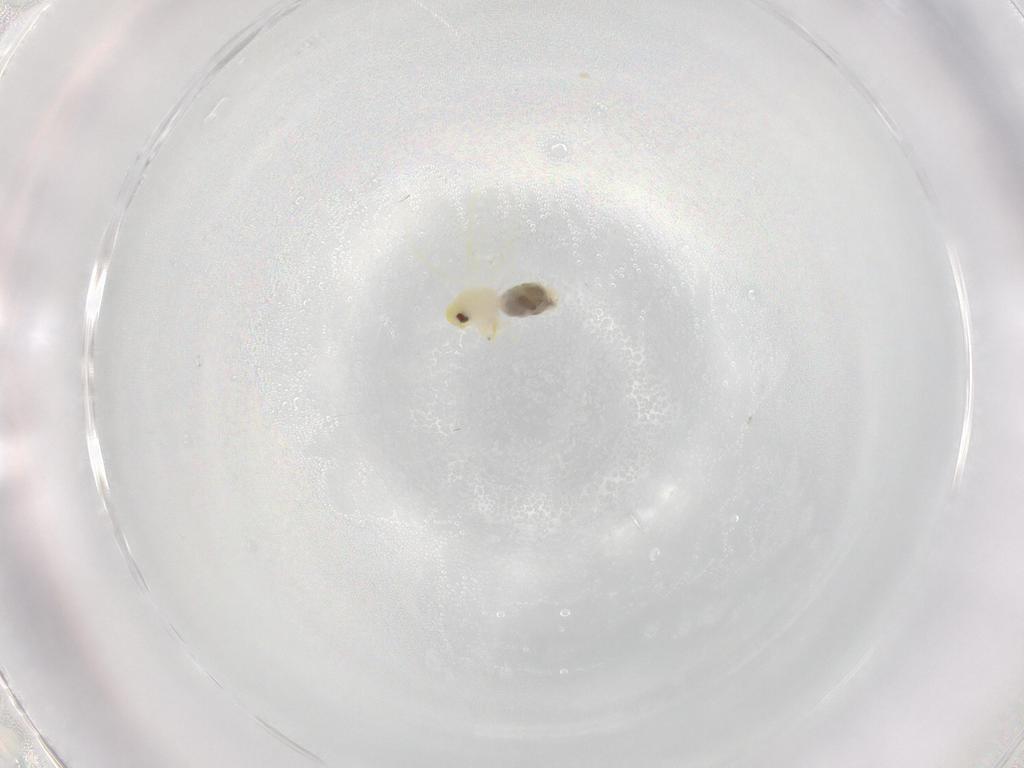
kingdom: Animalia
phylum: Arthropoda
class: Insecta
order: Hemiptera
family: Aleyrodidae
